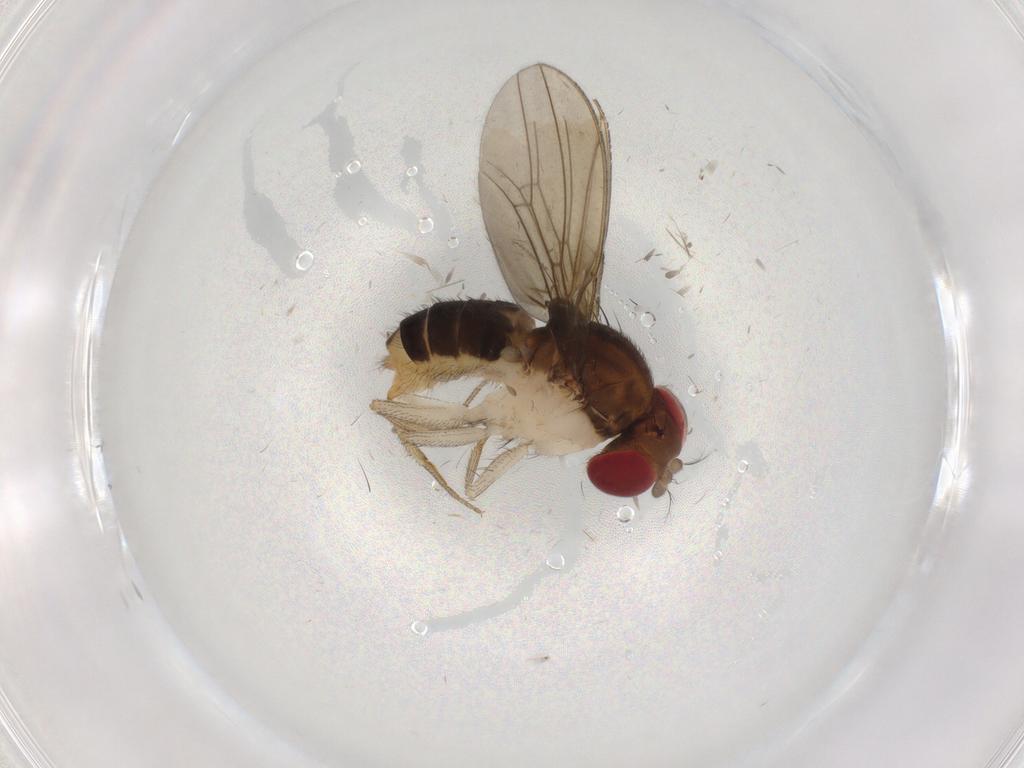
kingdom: Animalia
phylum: Arthropoda
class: Insecta
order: Diptera
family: Drosophilidae
